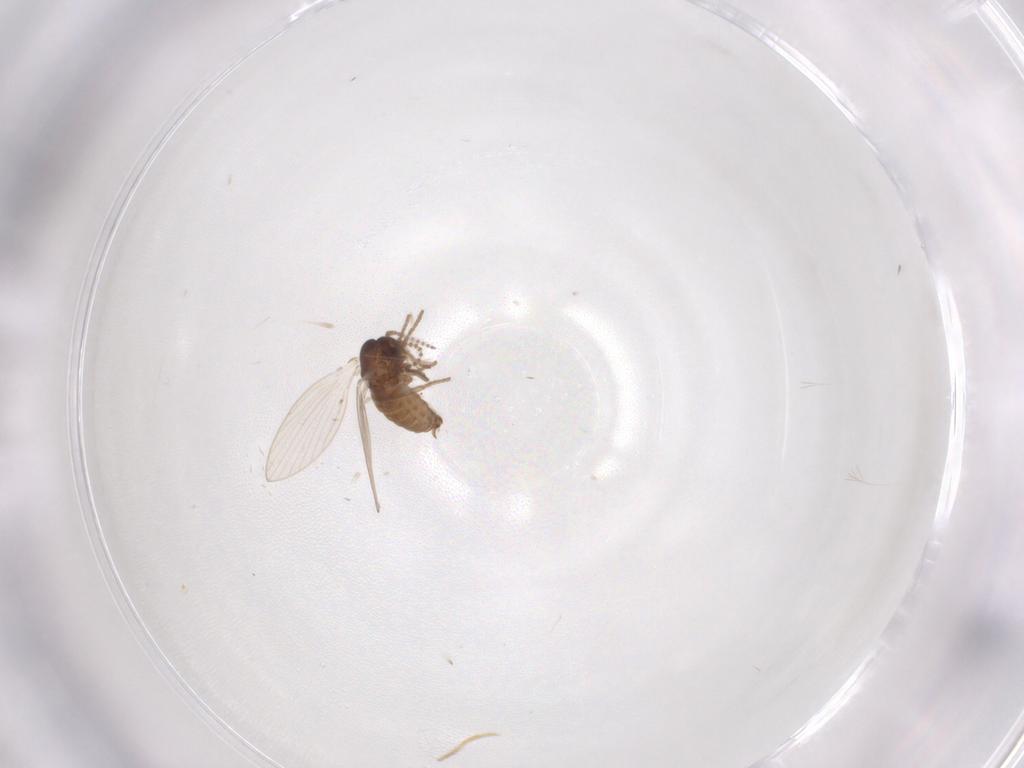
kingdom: Animalia
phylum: Arthropoda
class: Insecta
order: Diptera
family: Psychodidae
